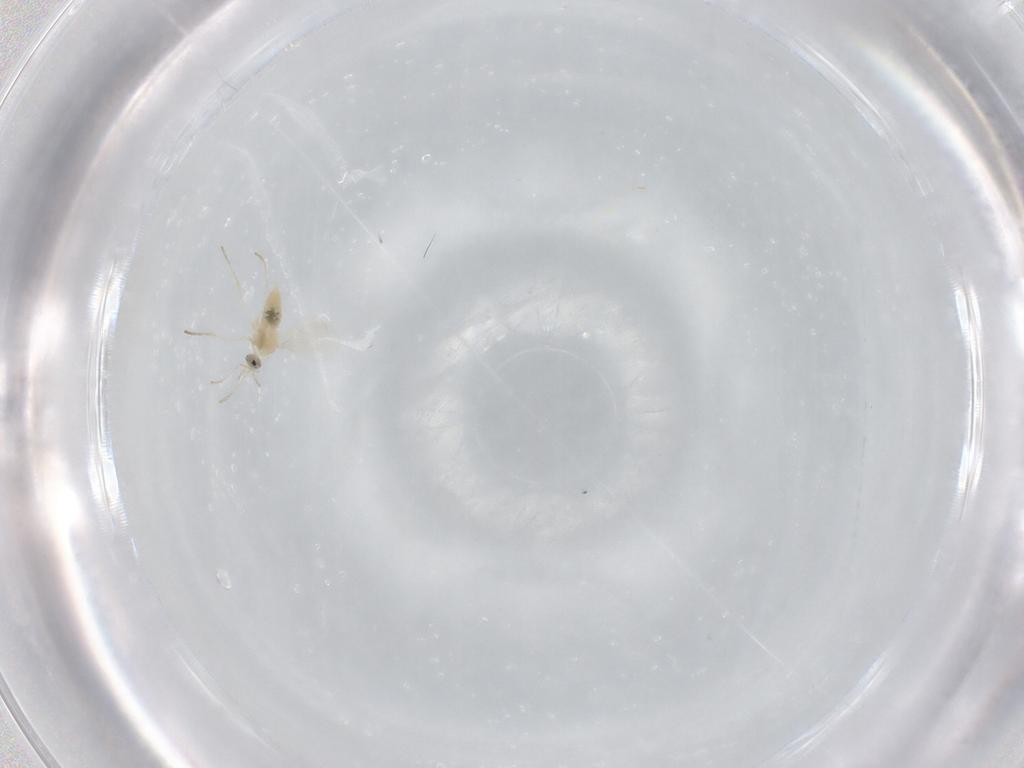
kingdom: Animalia
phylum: Arthropoda
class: Insecta
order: Diptera
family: Cecidomyiidae
